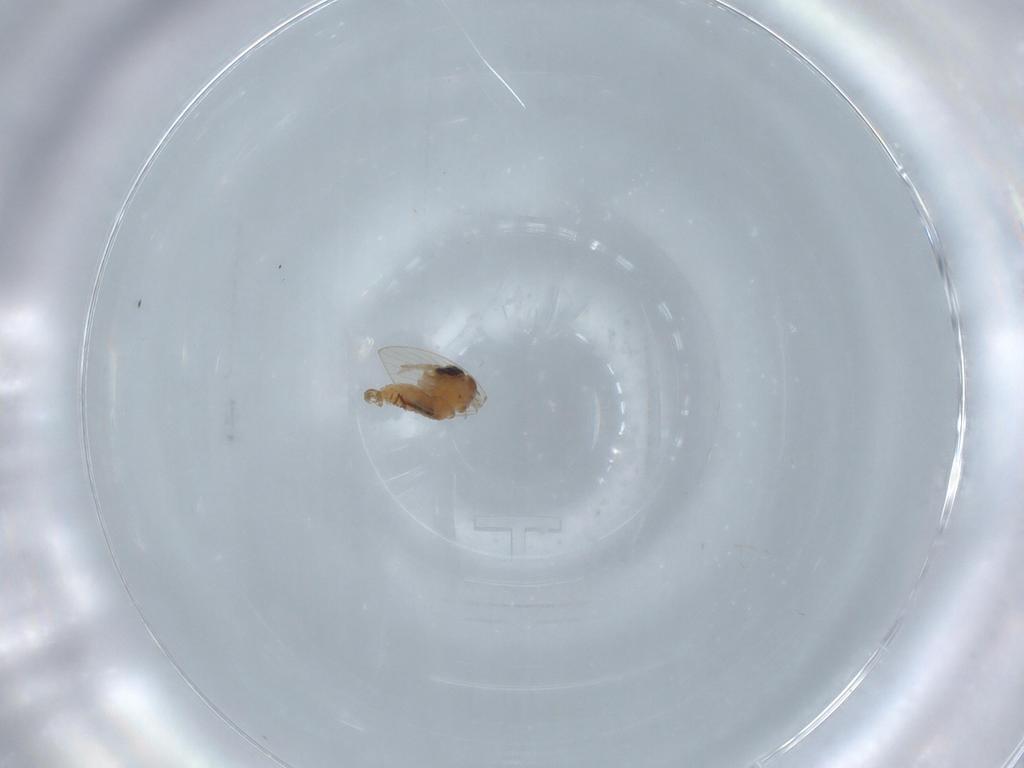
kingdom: Animalia
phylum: Arthropoda
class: Insecta
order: Diptera
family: Psychodidae
